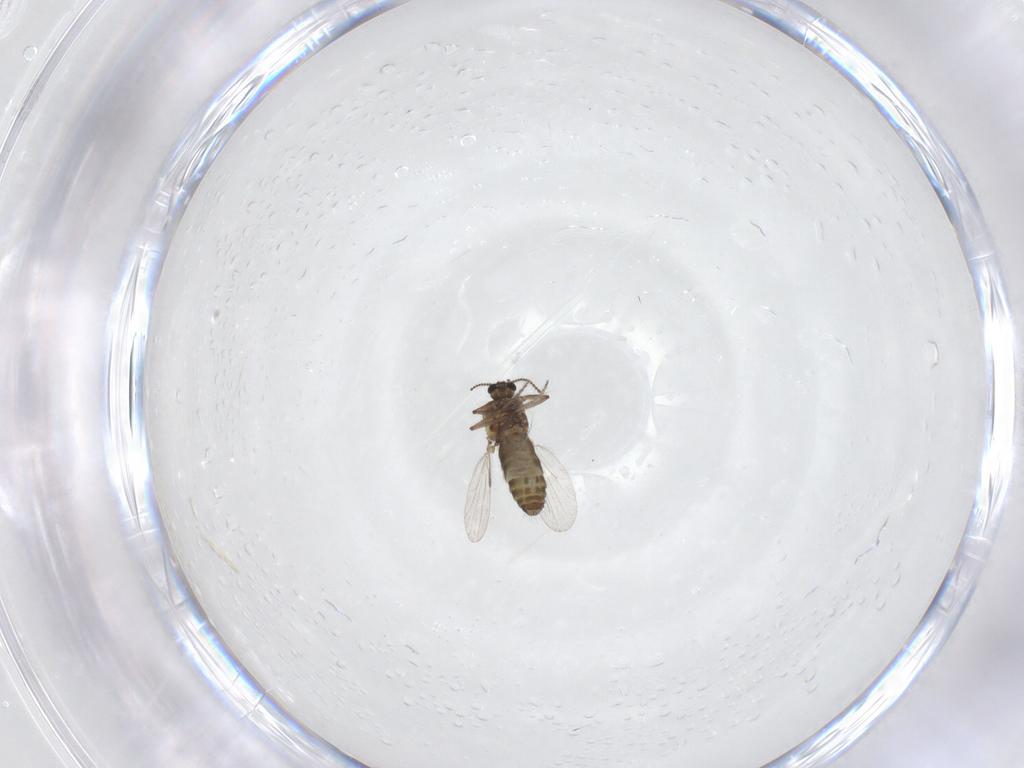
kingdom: Animalia
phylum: Arthropoda
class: Insecta
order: Diptera
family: Ceratopogonidae
